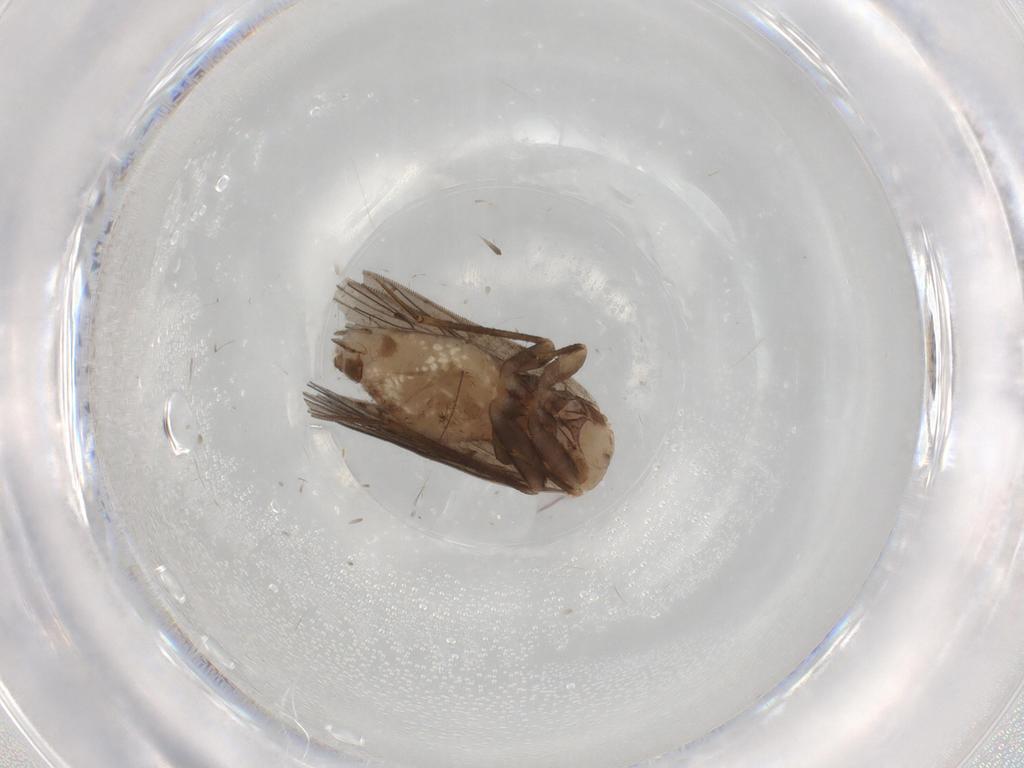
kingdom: Animalia
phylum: Arthropoda
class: Insecta
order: Psocodea
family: Lepidopsocidae
